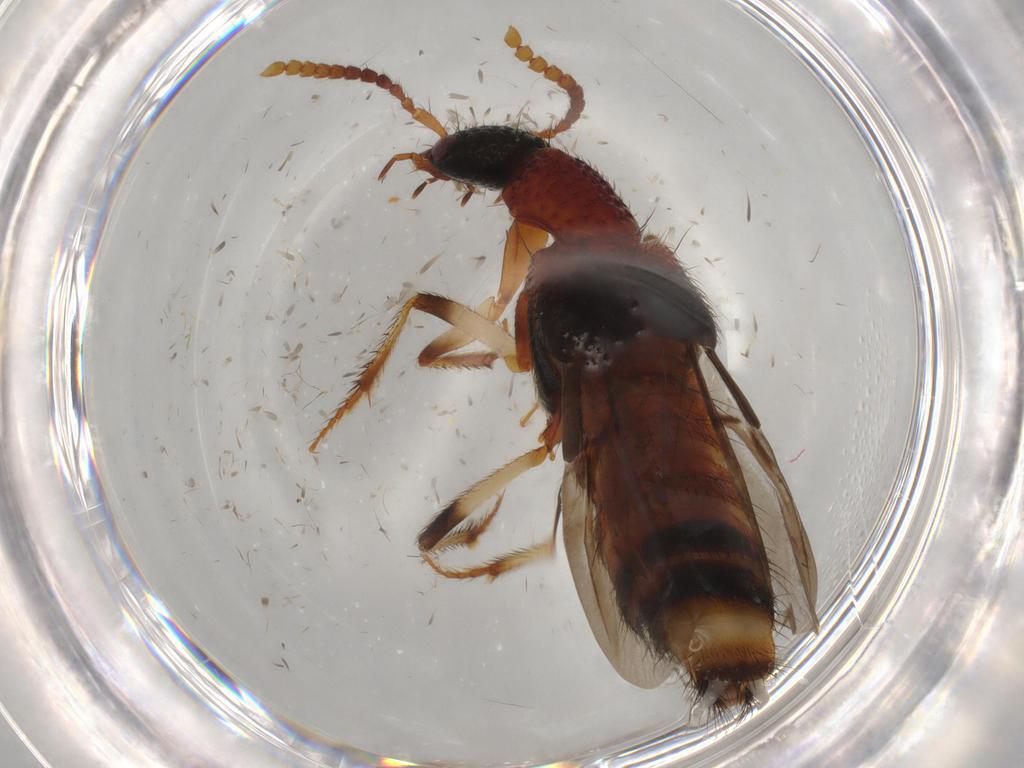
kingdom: Animalia
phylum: Arthropoda
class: Insecta
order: Coleoptera
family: Staphylinidae
